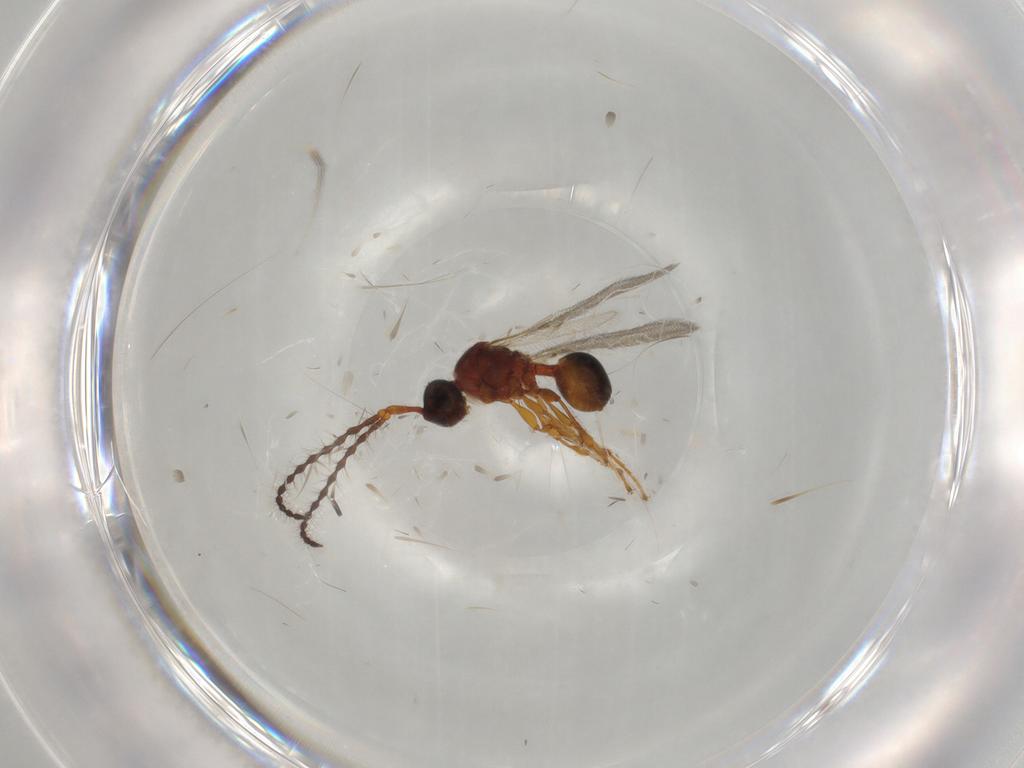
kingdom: Animalia
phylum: Arthropoda
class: Insecta
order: Hymenoptera
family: Diapriidae
